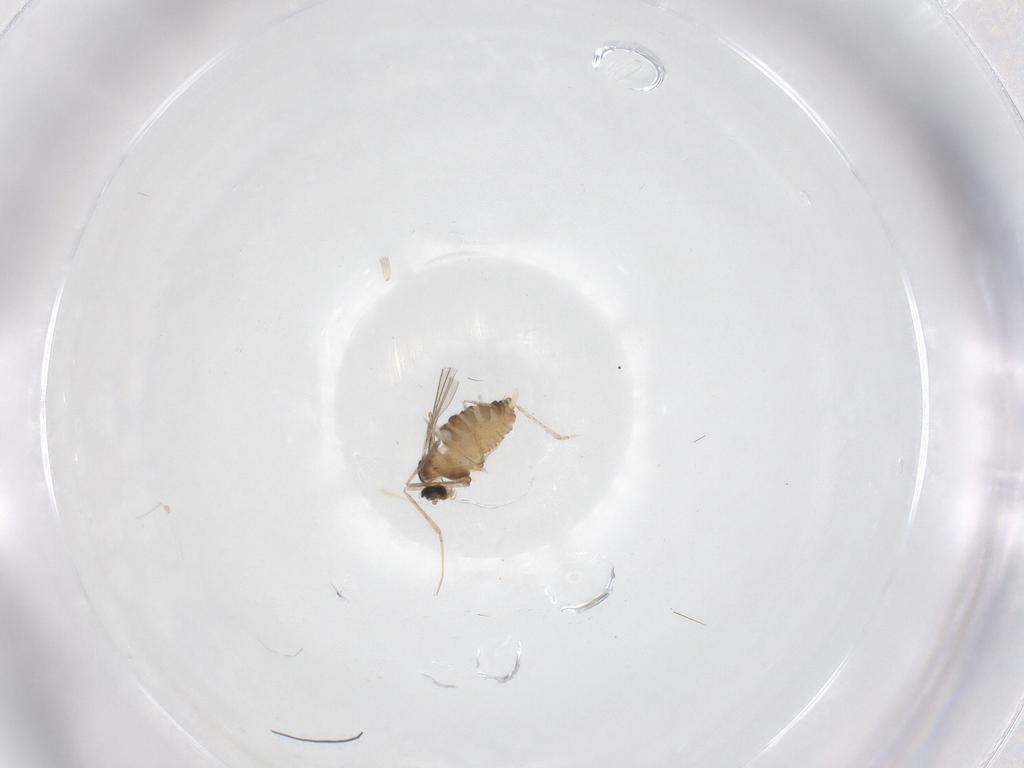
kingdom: Animalia
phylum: Arthropoda
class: Insecta
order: Diptera
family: Cecidomyiidae
